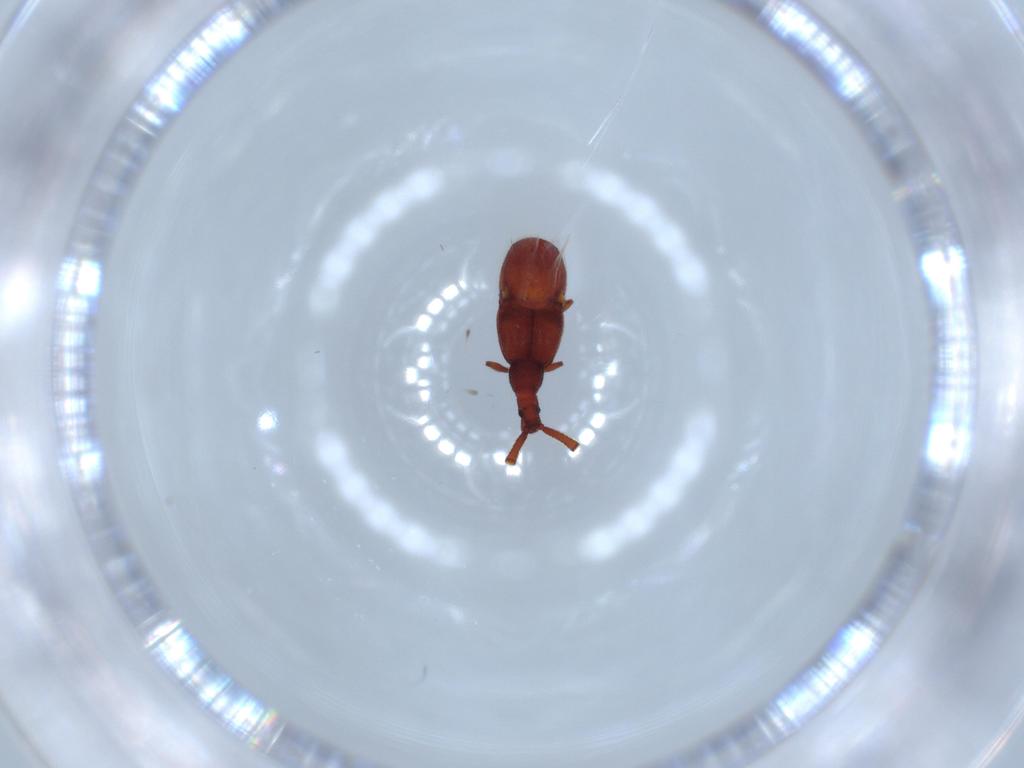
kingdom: Animalia
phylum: Arthropoda
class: Insecta
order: Coleoptera
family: Staphylinidae
